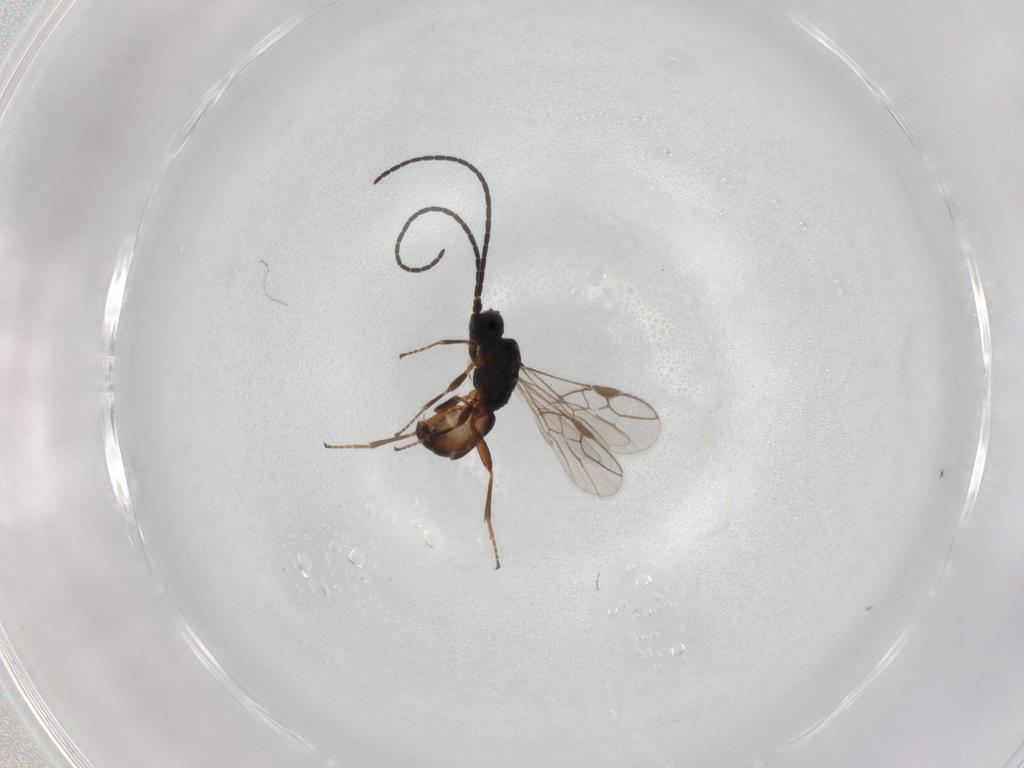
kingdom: Animalia
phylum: Arthropoda
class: Insecta
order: Hymenoptera
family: Braconidae
